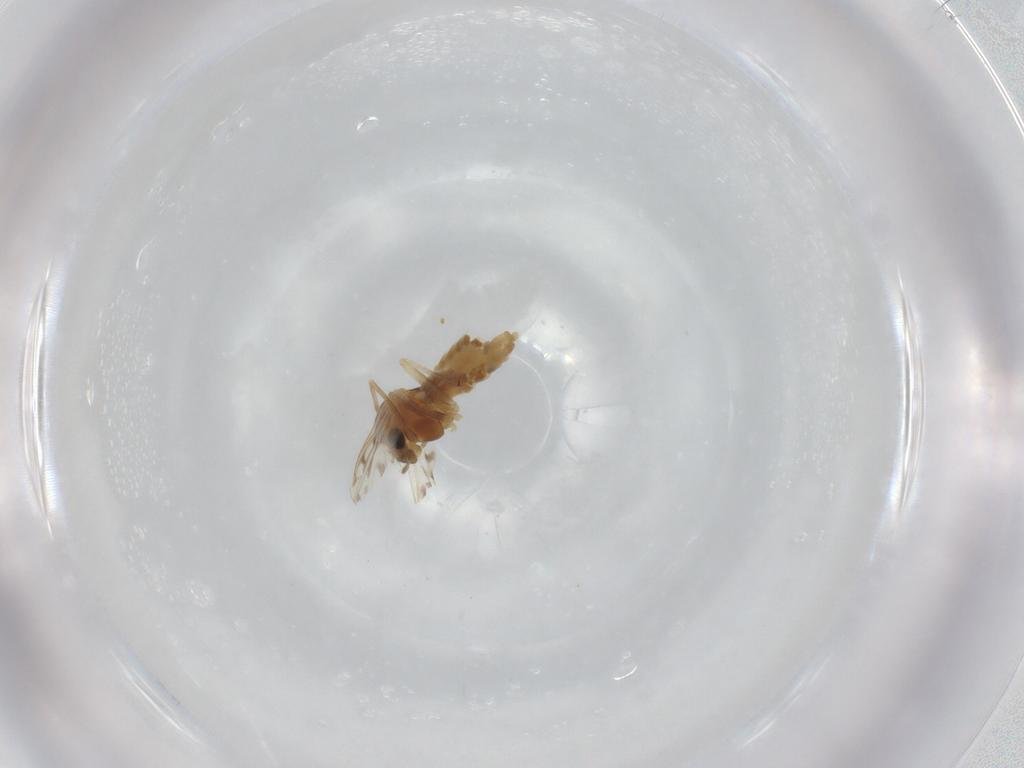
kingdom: Animalia
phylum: Arthropoda
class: Insecta
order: Diptera
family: Chironomidae
